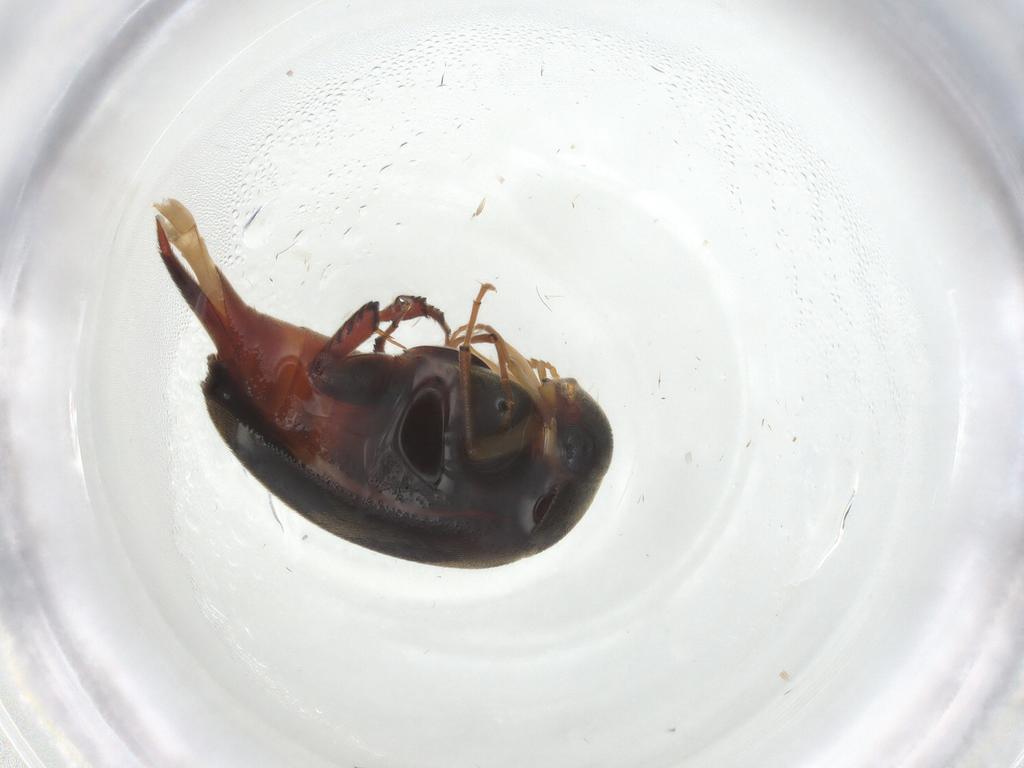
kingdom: Animalia
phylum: Arthropoda
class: Insecta
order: Coleoptera
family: Mordellidae
